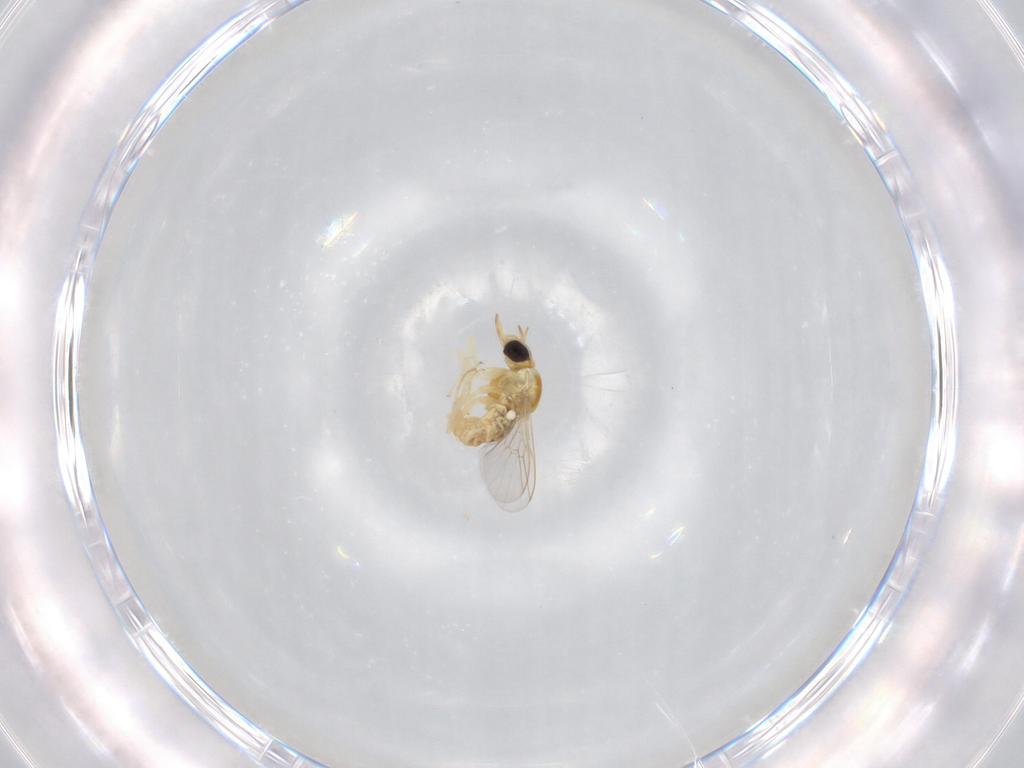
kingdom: Animalia
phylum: Arthropoda
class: Insecta
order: Diptera
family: Cecidomyiidae
